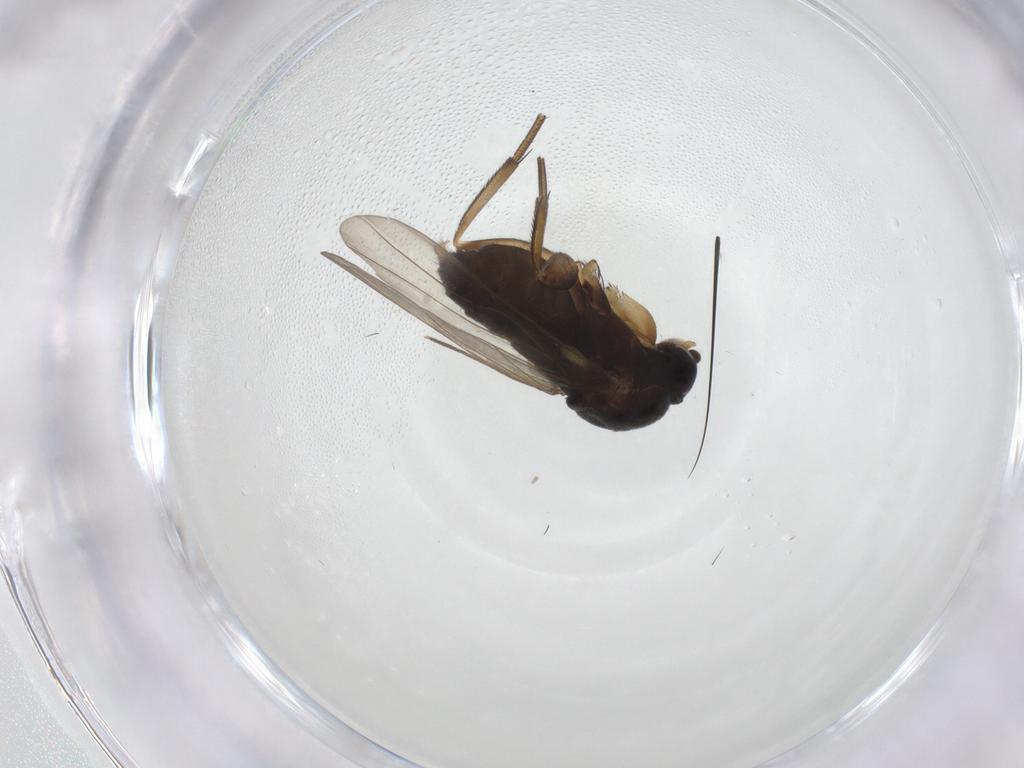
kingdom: Animalia
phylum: Arthropoda
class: Insecta
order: Diptera
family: Phoridae
